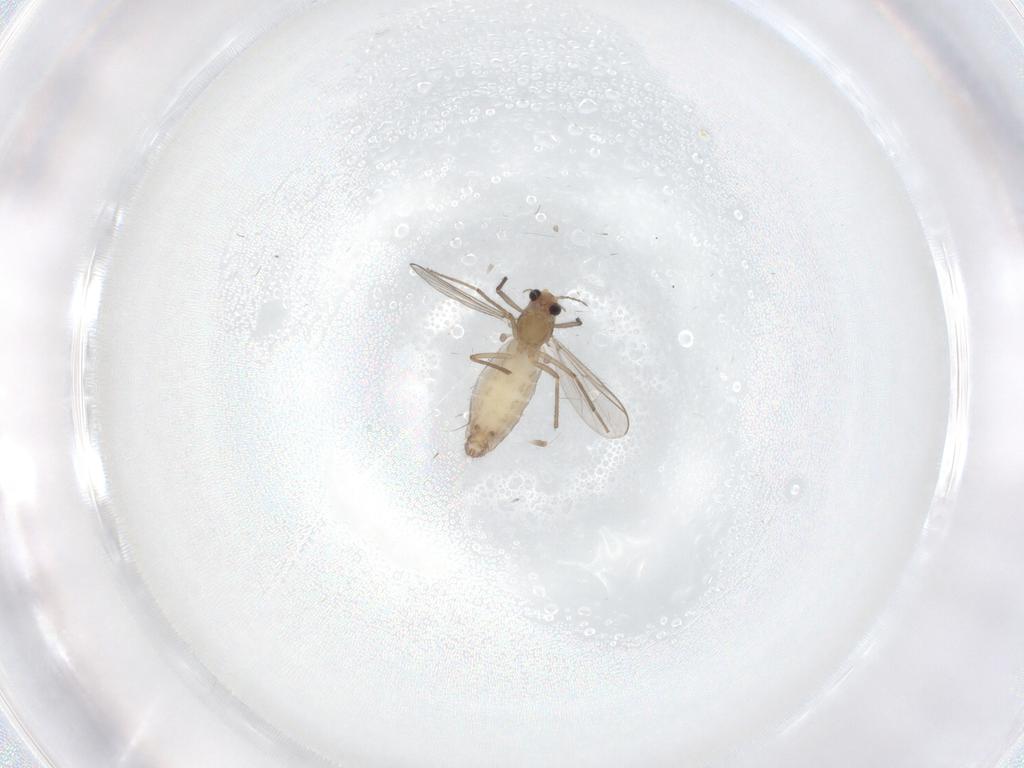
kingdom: Animalia
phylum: Arthropoda
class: Insecta
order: Diptera
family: Chironomidae
